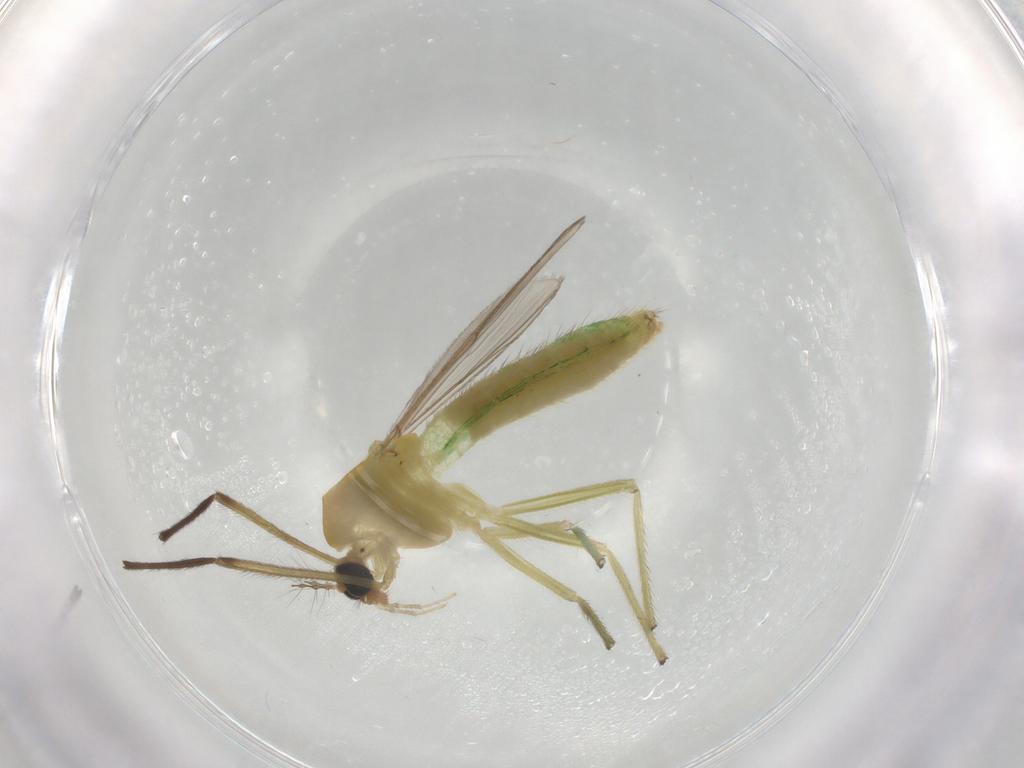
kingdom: Animalia
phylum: Arthropoda
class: Insecta
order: Diptera
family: Chironomidae
